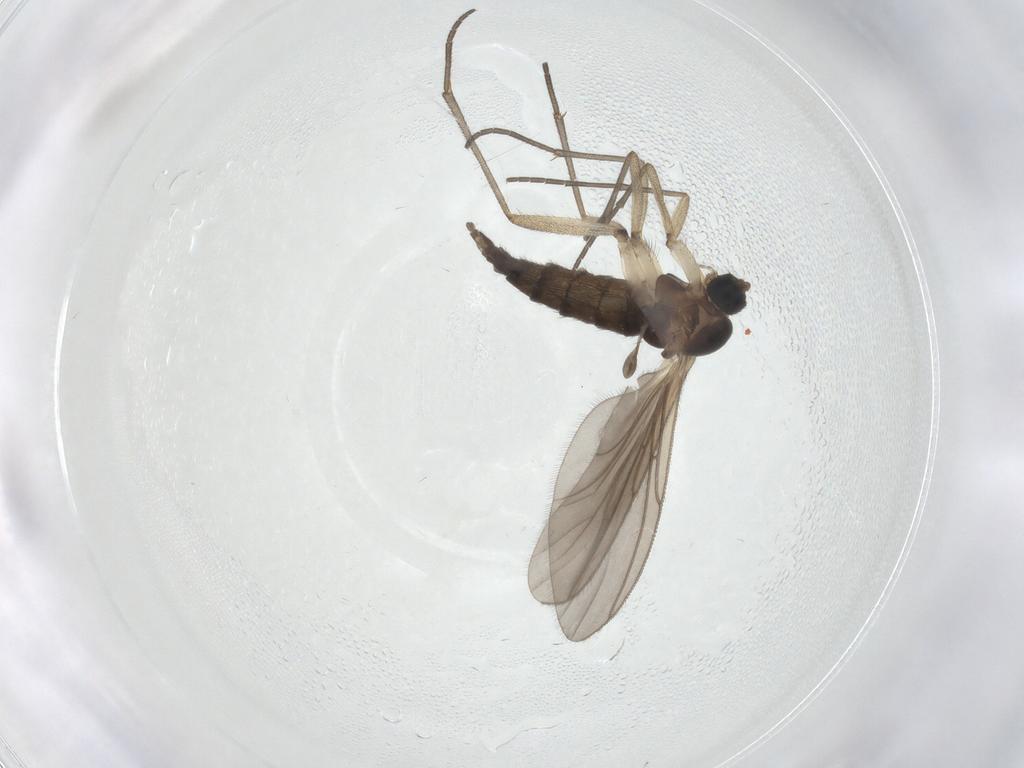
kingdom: Animalia
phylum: Arthropoda
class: Insecta
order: Diptera
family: Sciaridae
